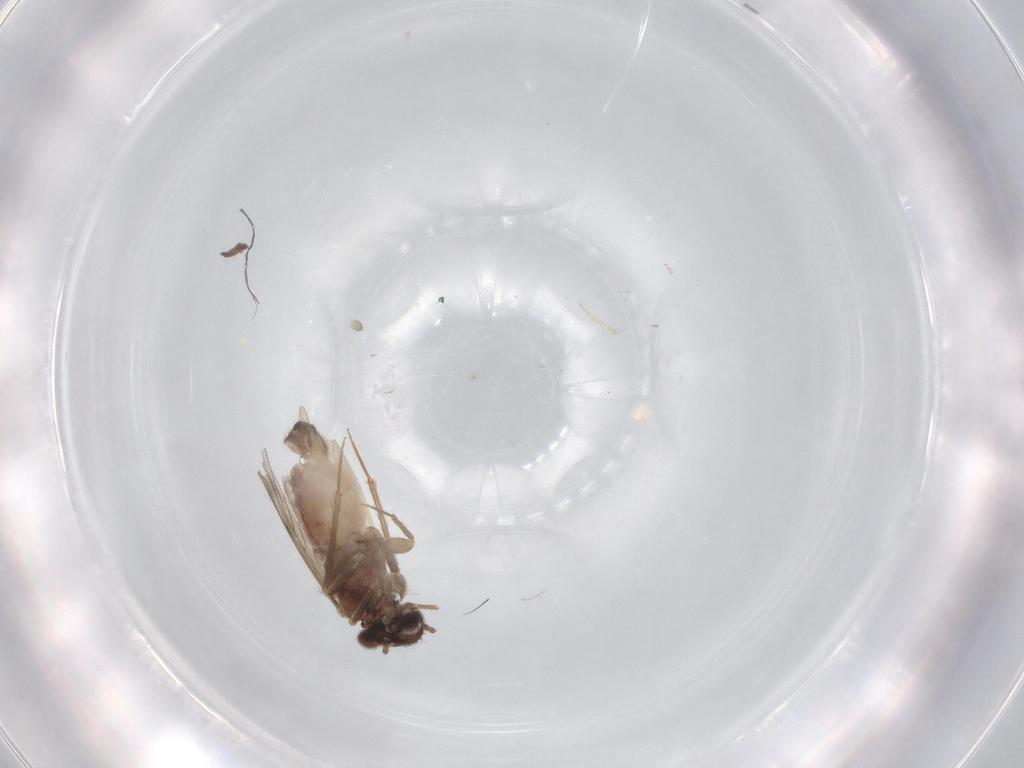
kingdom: Animalia
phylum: Arthropoda
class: Insecta
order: Psocodea
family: Lepidopsocidae
